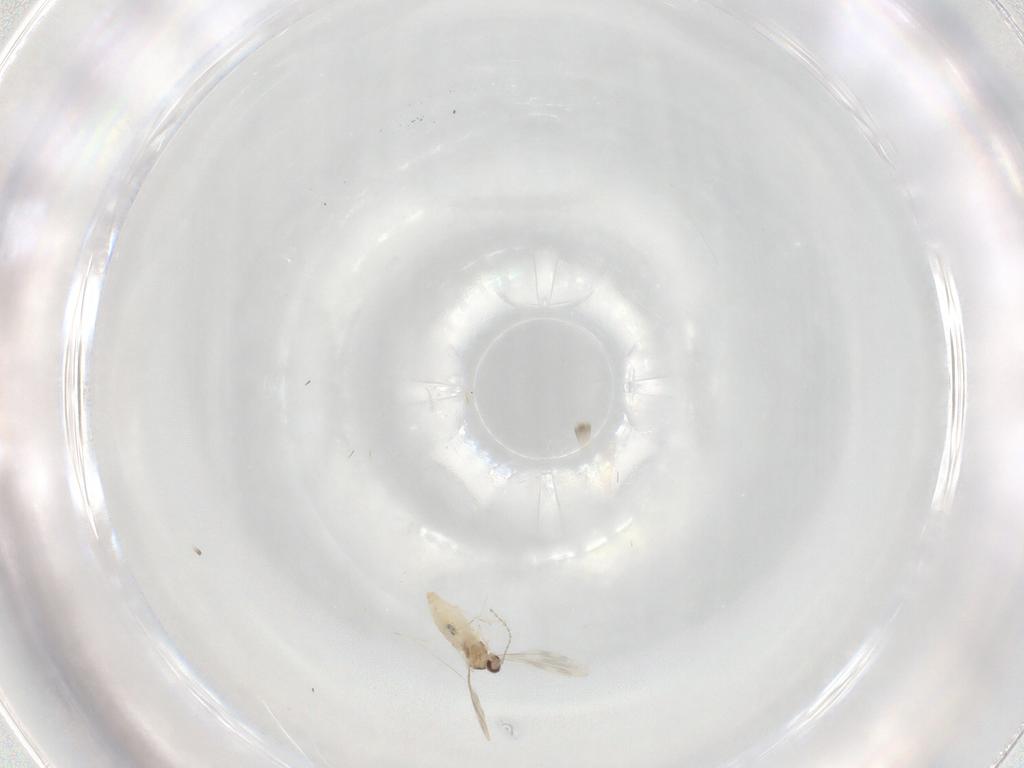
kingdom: Animalia
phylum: Arthropoda
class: Insecta
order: Diptera
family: Cecidomyiidae
